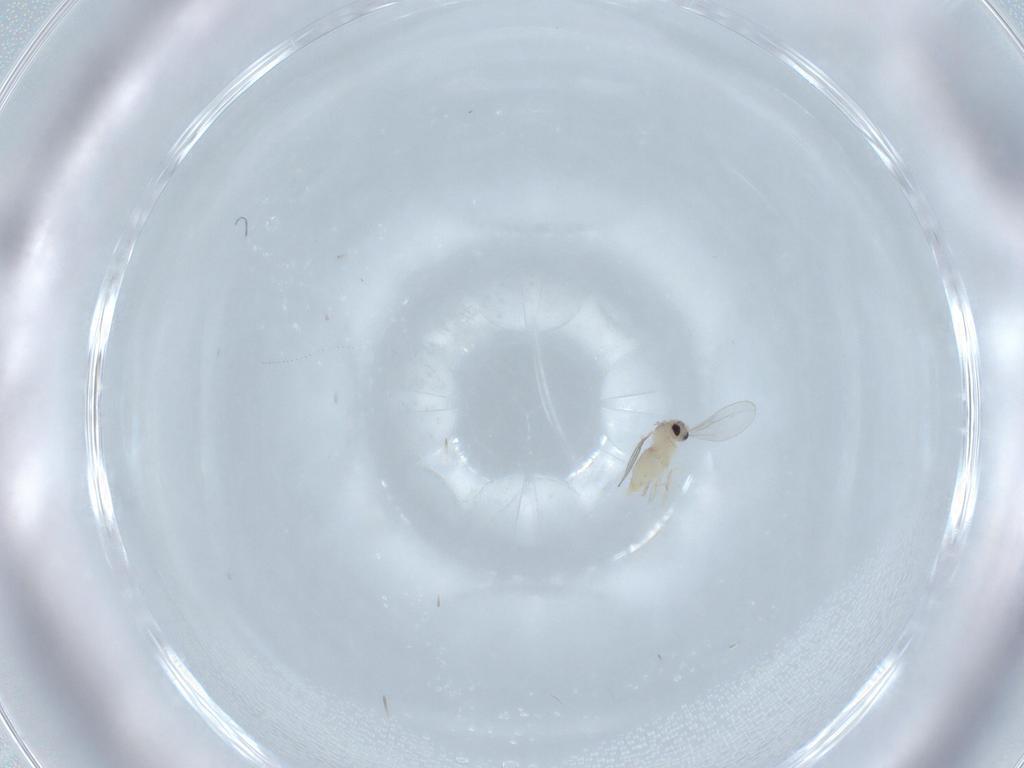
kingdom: Animalia
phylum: Arthropoda
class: Insecta
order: Diptera
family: Cecidomyiidae
